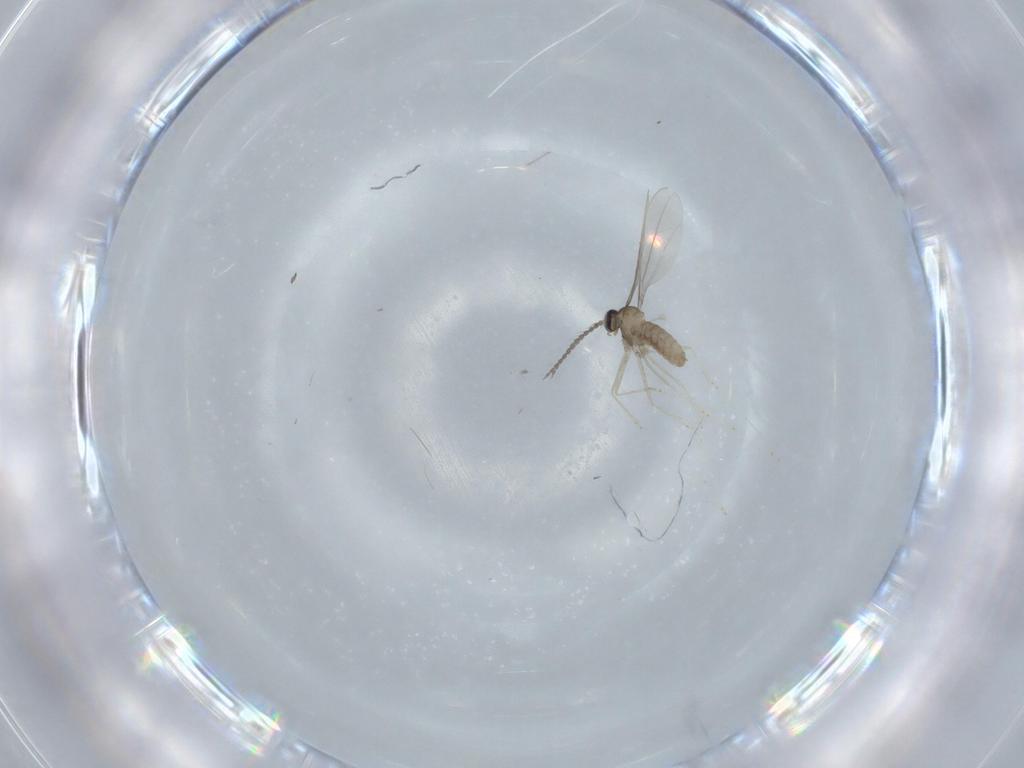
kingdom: Animalia
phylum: Arthropoda
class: Insecta
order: Diptera
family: Cecidomyiidae
